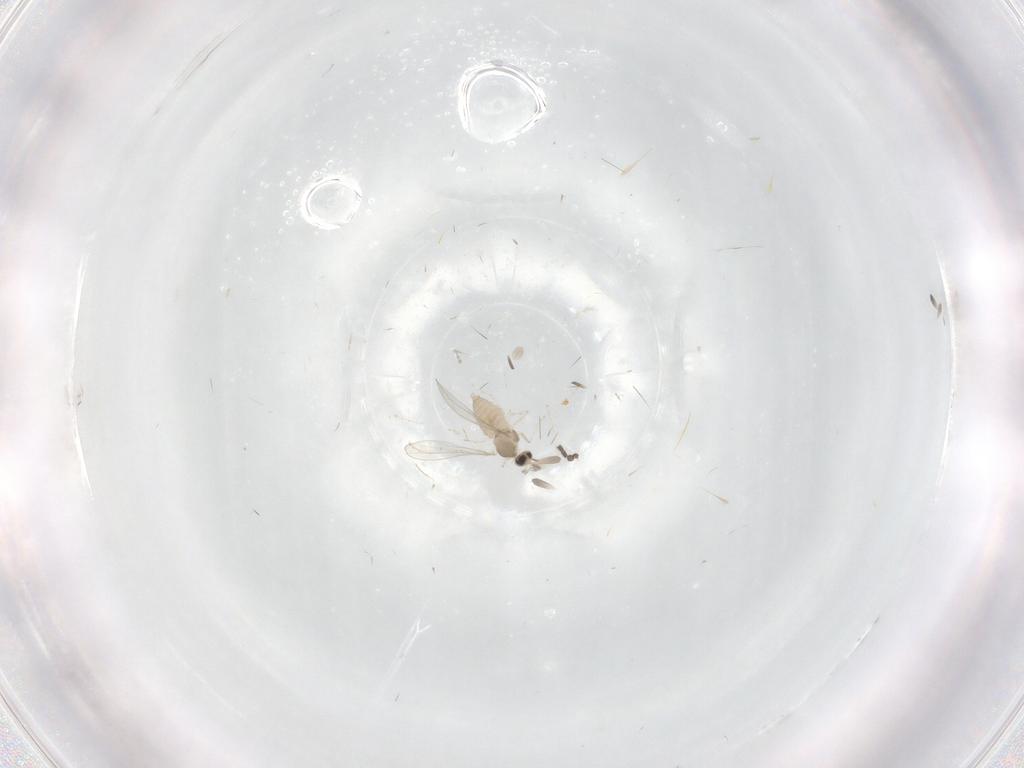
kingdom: Animalia
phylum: Arthropoda
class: Insecta
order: Diptera
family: Cecidomyiidae
